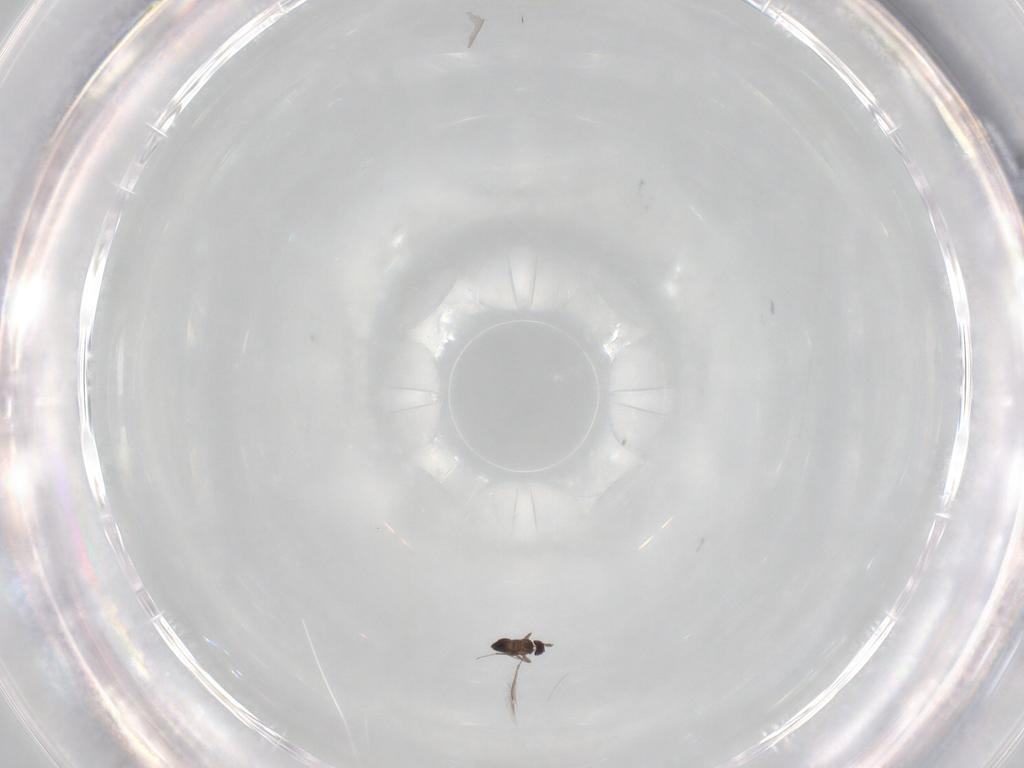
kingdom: Animalia
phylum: Arthropoda
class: Insecta
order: Hymenoptera
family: Mymaridae
